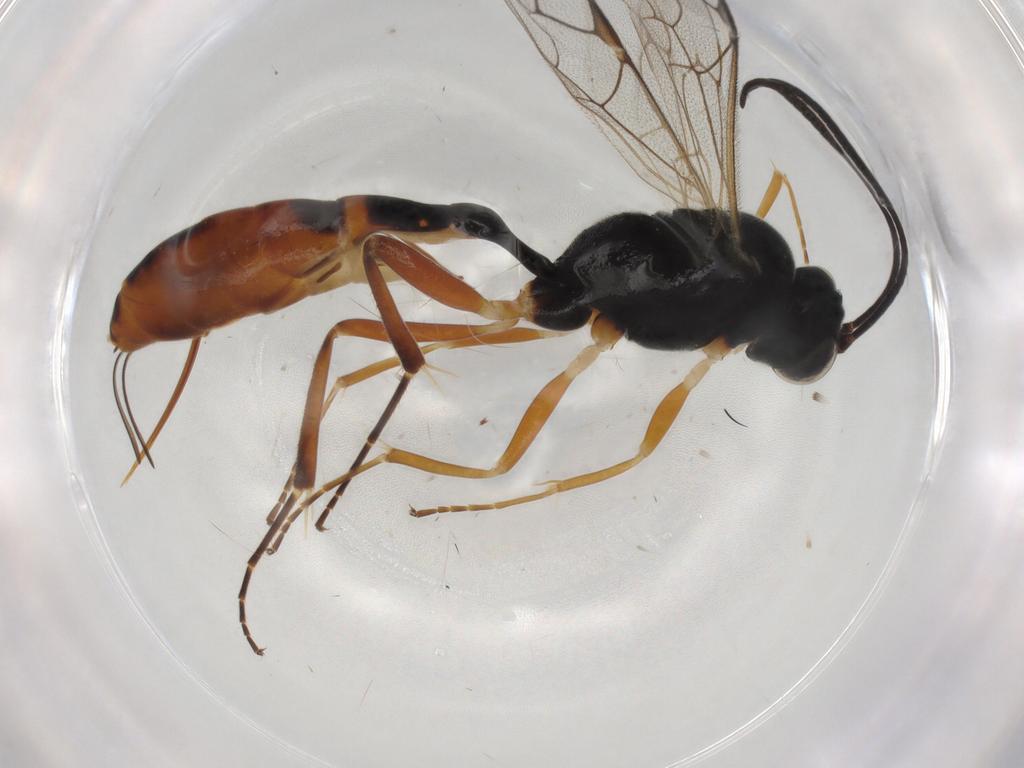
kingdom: Animalia
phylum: Arthropoda
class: Insecta
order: Hymenoptera
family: Ichneumonidae
